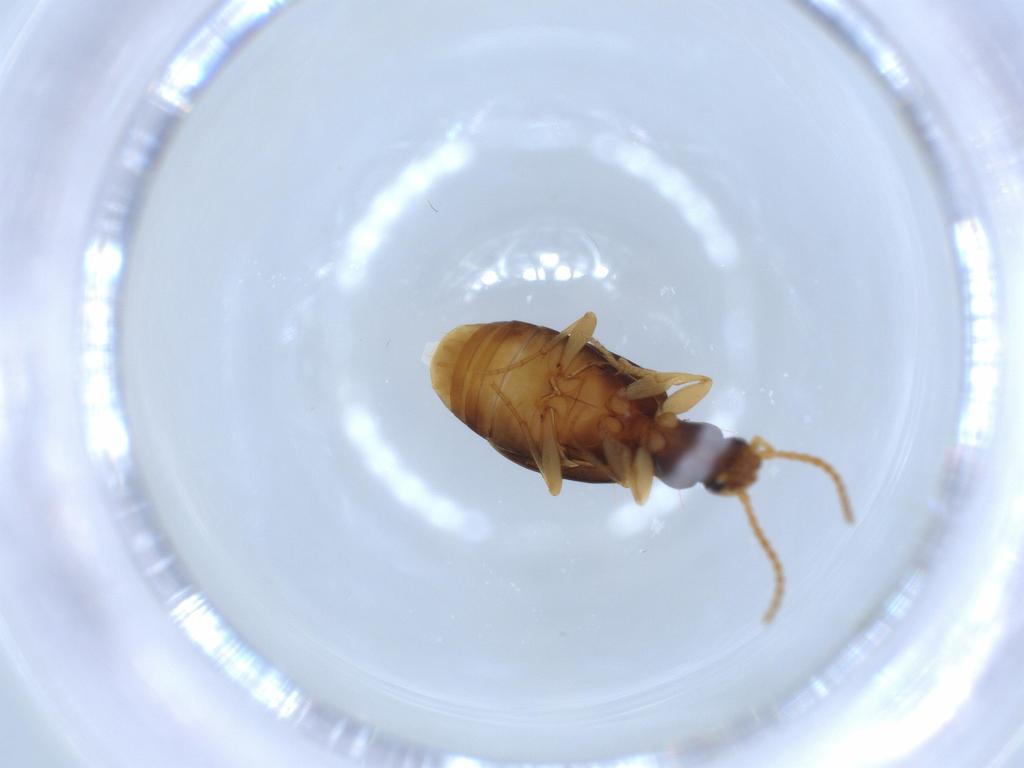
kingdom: Animalia
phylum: Arthropoda
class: Insecta
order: Coleoptera
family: Carabidae
